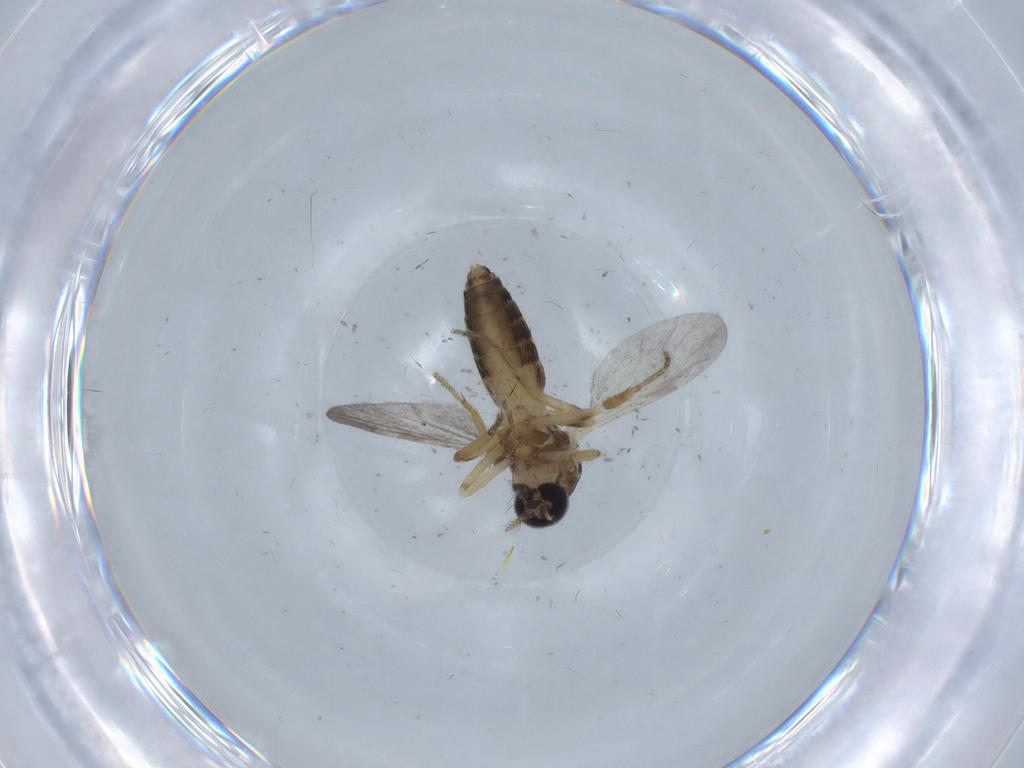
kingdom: Animalia
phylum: Arthropoda
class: Insecta
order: Diptera
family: Ceratopogonidae
